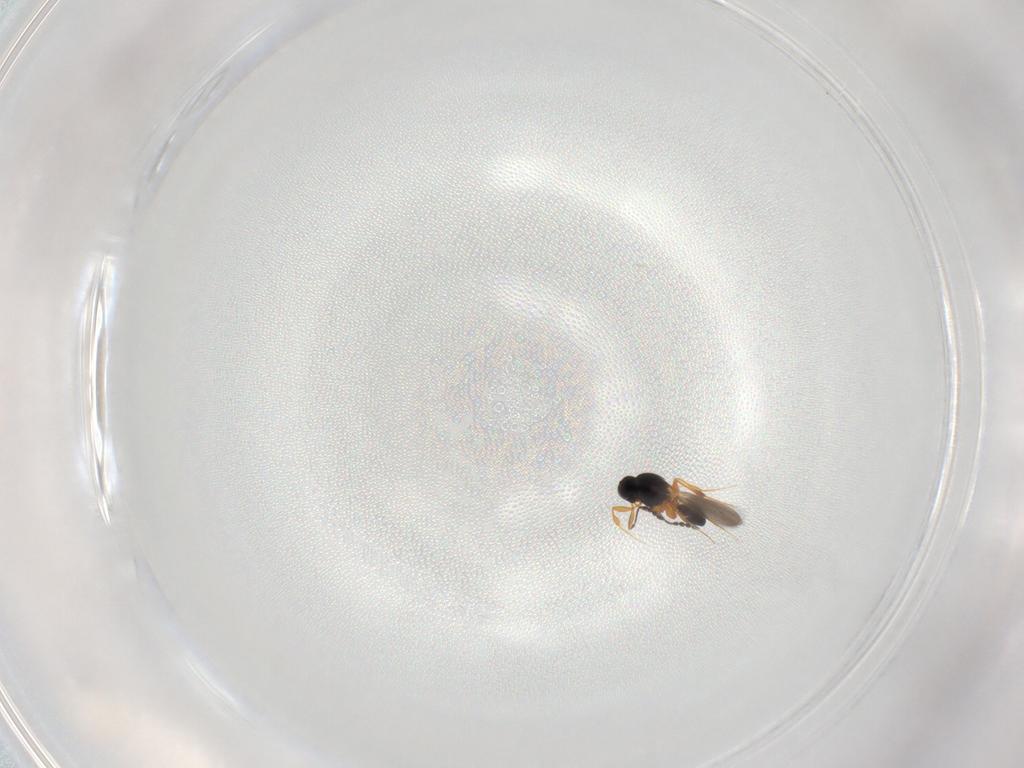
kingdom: Animalia
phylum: Arthropoda
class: Insecta
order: Hymenoptera
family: Platygastridae
